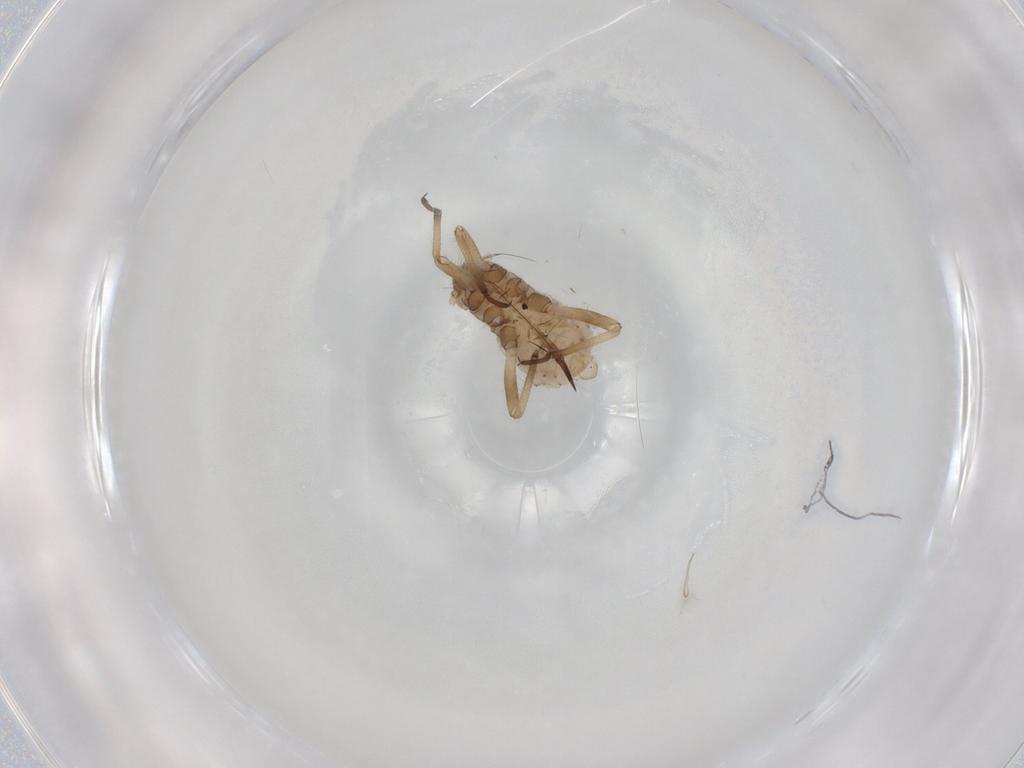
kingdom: Animalia
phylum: Arthropoda
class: Insecta
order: Hemiptera
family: Aphididae
